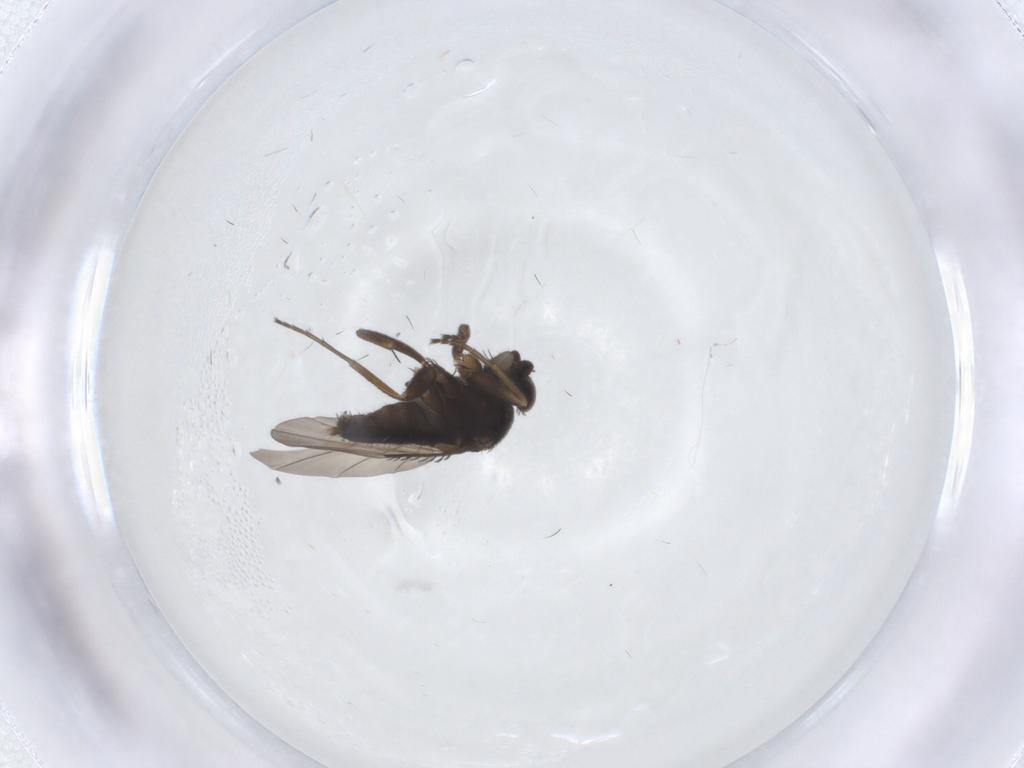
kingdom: Animalia
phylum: Arthropoda
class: Insecta
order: Diptera
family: Phoridae
